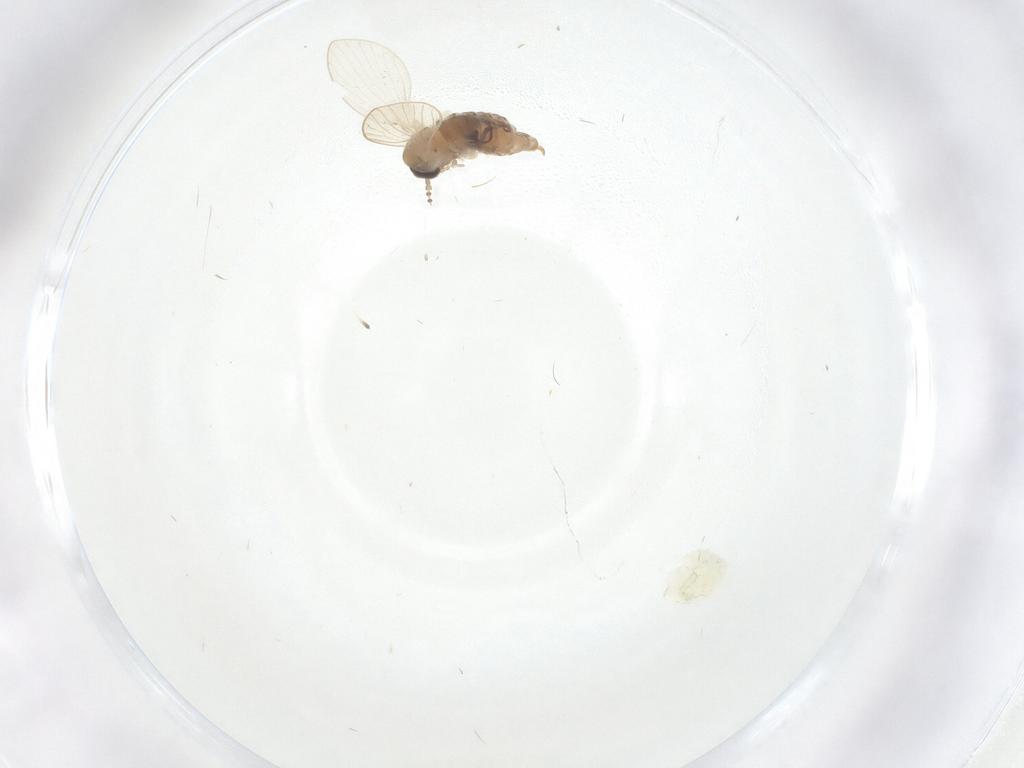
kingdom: Animalia
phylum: Arthropoda
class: Insecta
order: Diptera
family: Psychodidae
